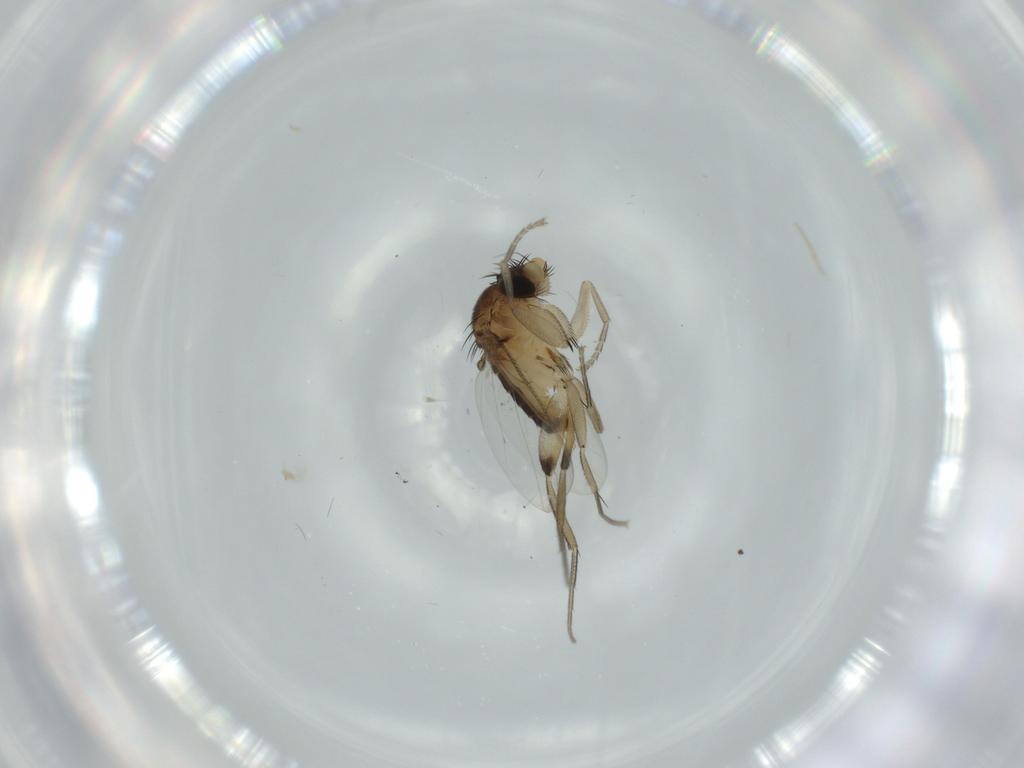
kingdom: Animalia
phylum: Arthropoda
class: Insecta
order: Diptera
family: Phoridae
